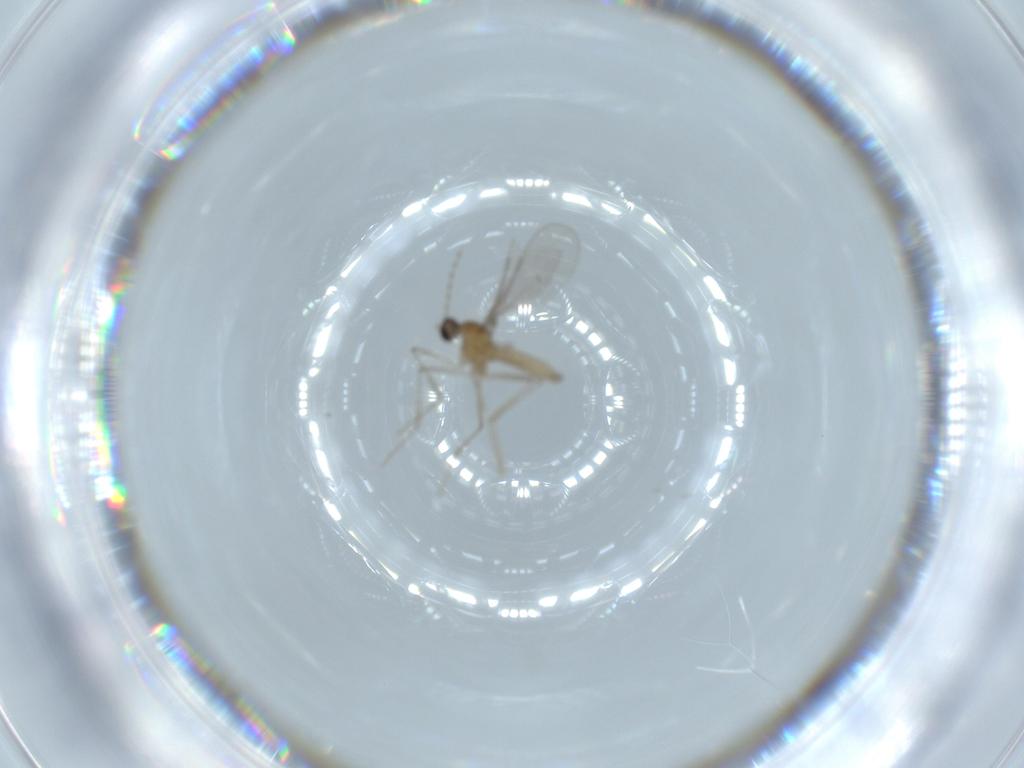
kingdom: Animalia
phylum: Arthropoda
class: Insecta
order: Diptera
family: Cecidomyiidae
